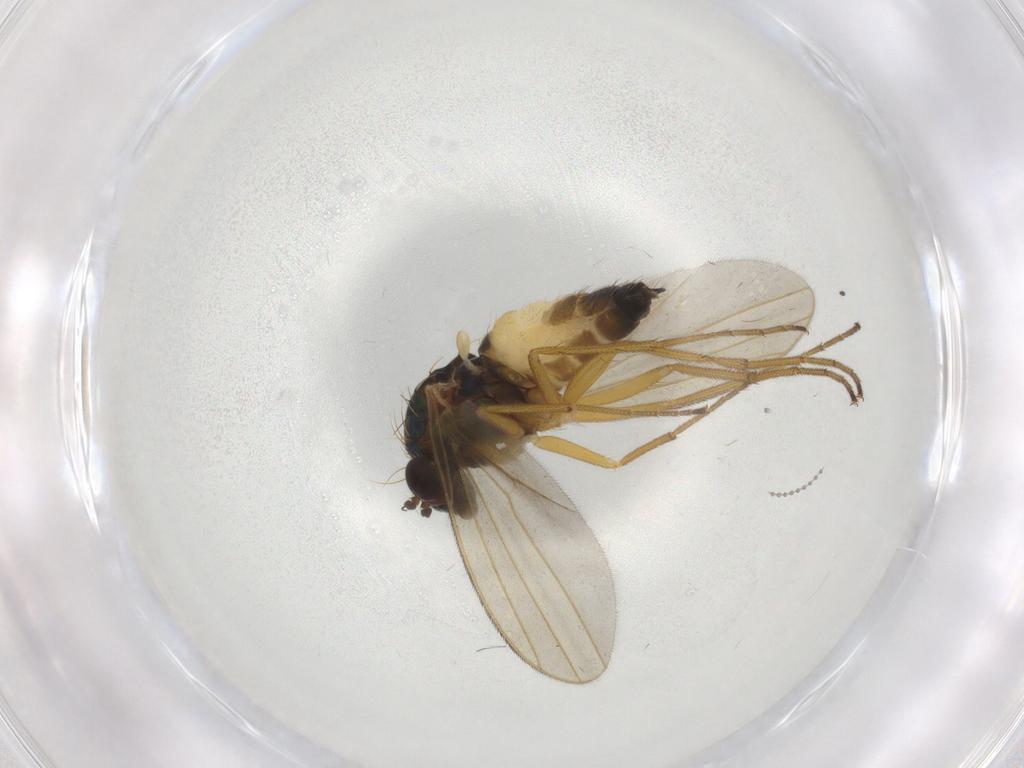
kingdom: Animalia
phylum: Arthropoda
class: Insecta
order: Diptera
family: Dolichopodidae
